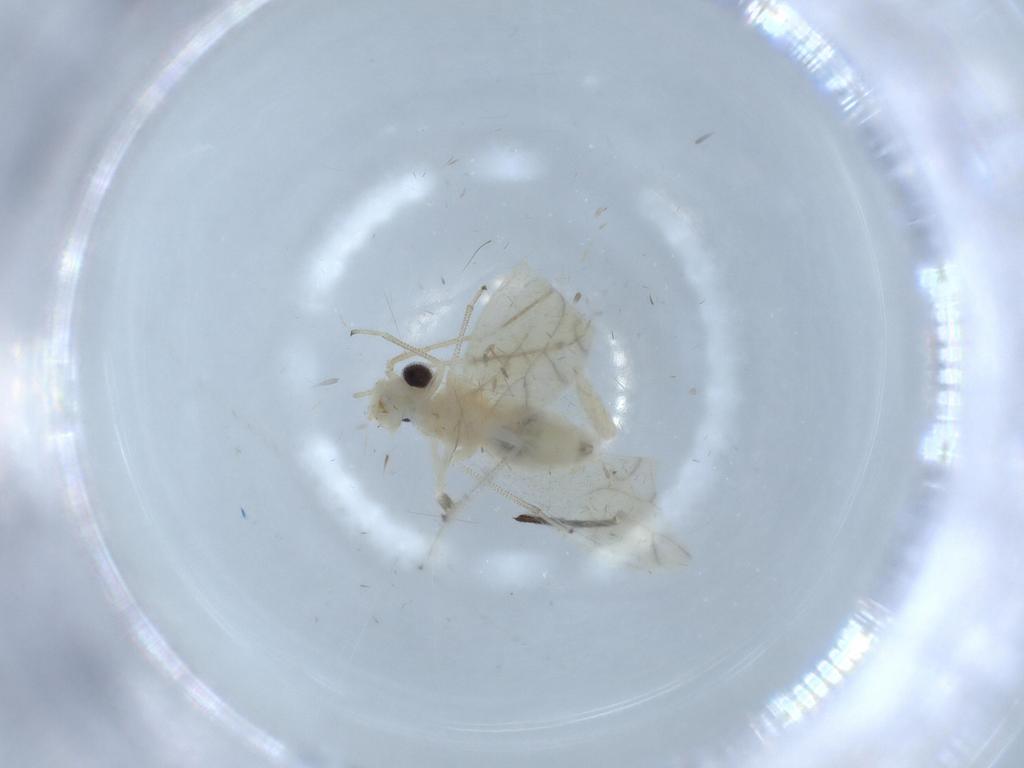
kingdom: Animalia
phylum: Arthropoda
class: Insecta
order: Psocodea
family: Caeciliusidae
